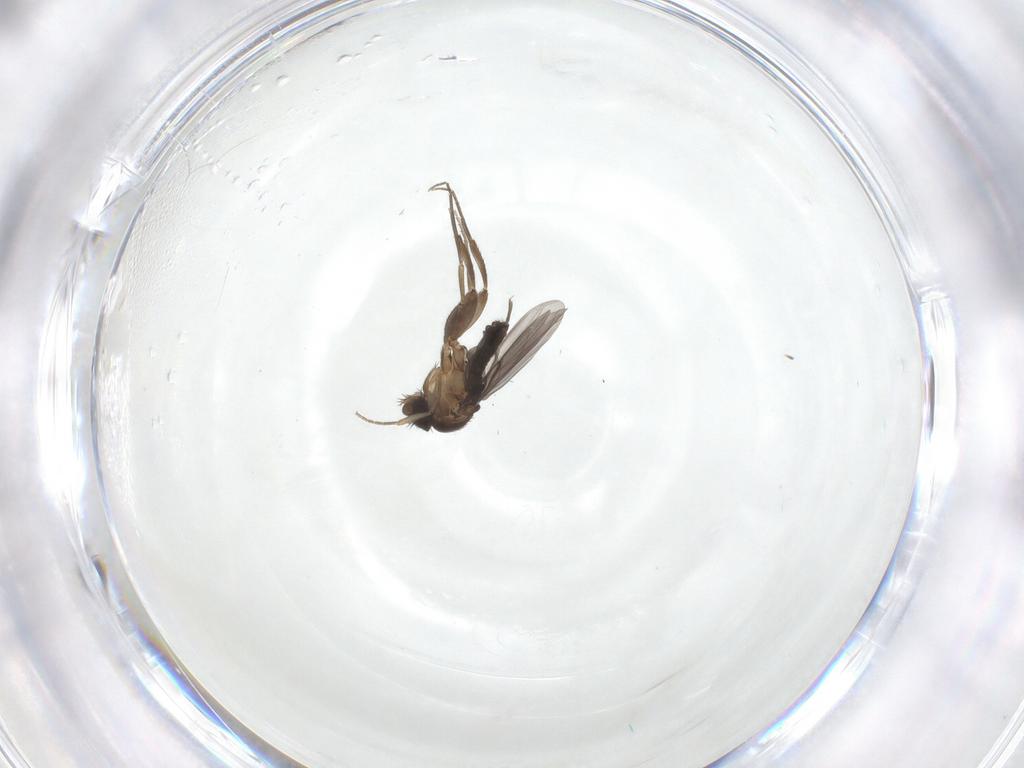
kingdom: Animalia
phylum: Arthropoda
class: Insecta
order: Diptera
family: Phoridae
